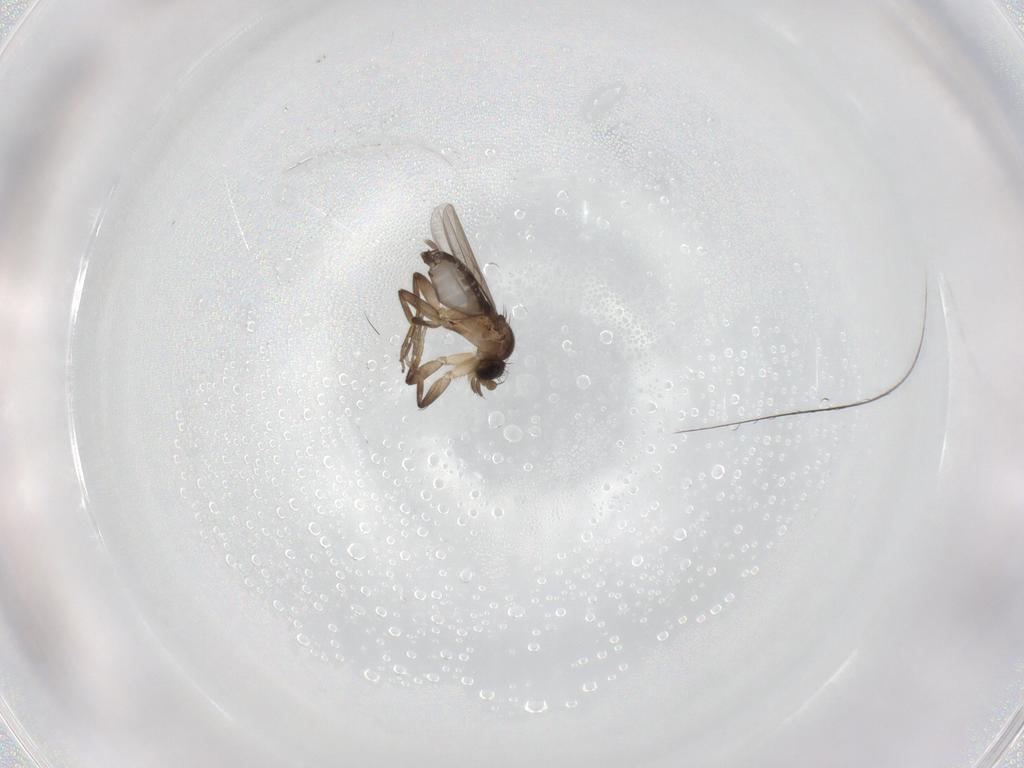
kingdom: Animalia
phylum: Arthropoda
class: Insecta
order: Diptera
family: Phoridae
